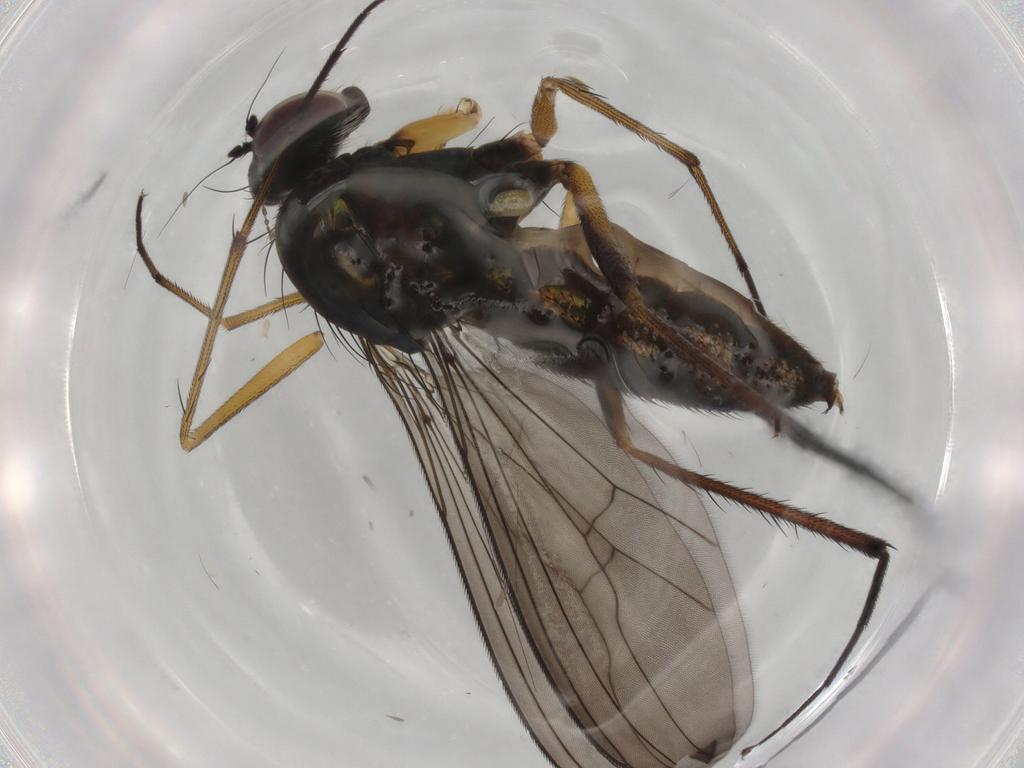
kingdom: Animalia
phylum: Arthropoda
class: Insecta
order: Diptera
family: Dolichopodidae
